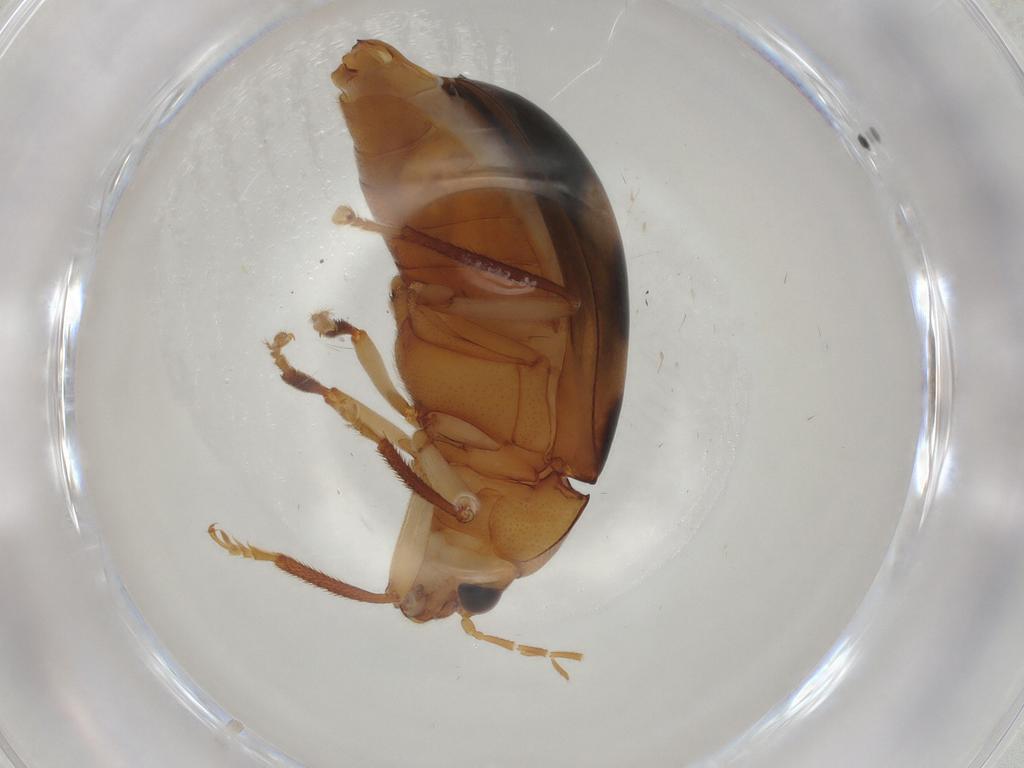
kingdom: Animalia
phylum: Arthropoda
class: Insecta
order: Coleoptera
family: Ptilodactylidae
